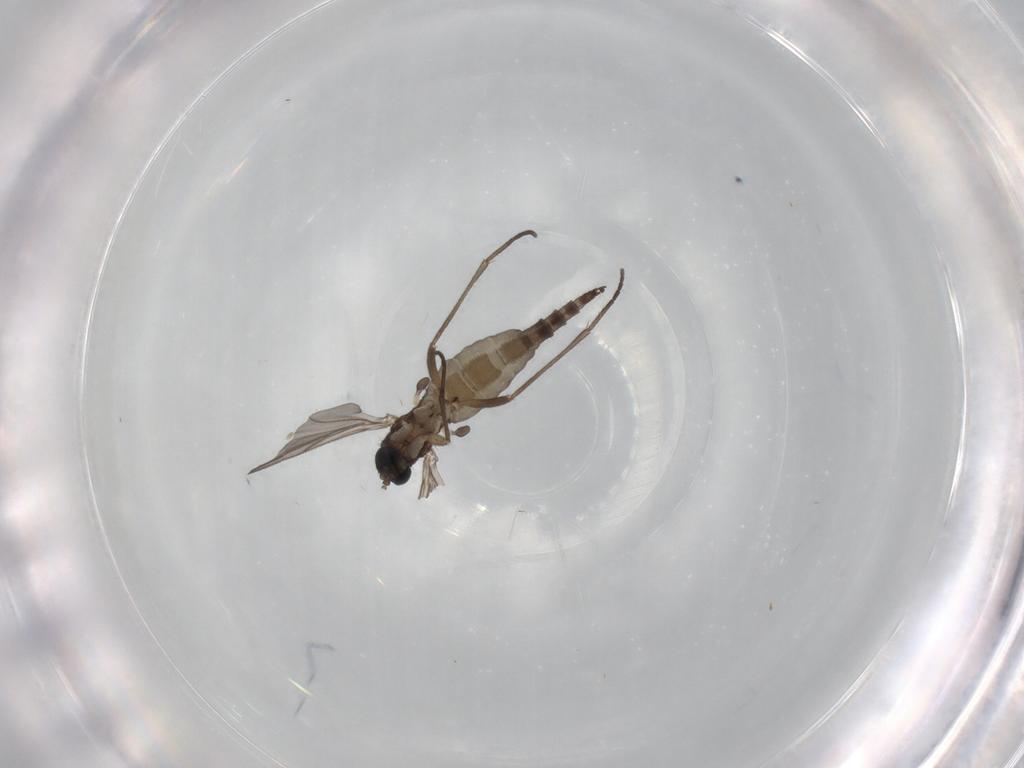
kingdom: Animalia
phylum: Arthropoda
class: Insecta
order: Diptera
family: Sciaridae
